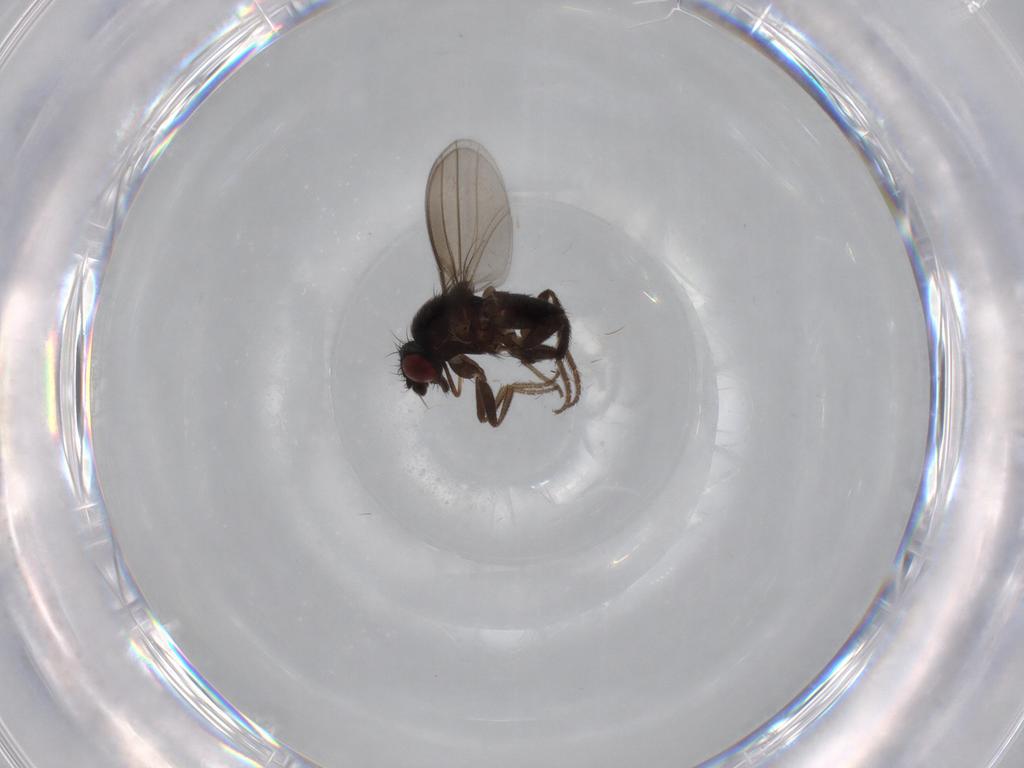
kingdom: Animalia
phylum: Arthropoda
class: Insecta
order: Diptera
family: Milichiidae
